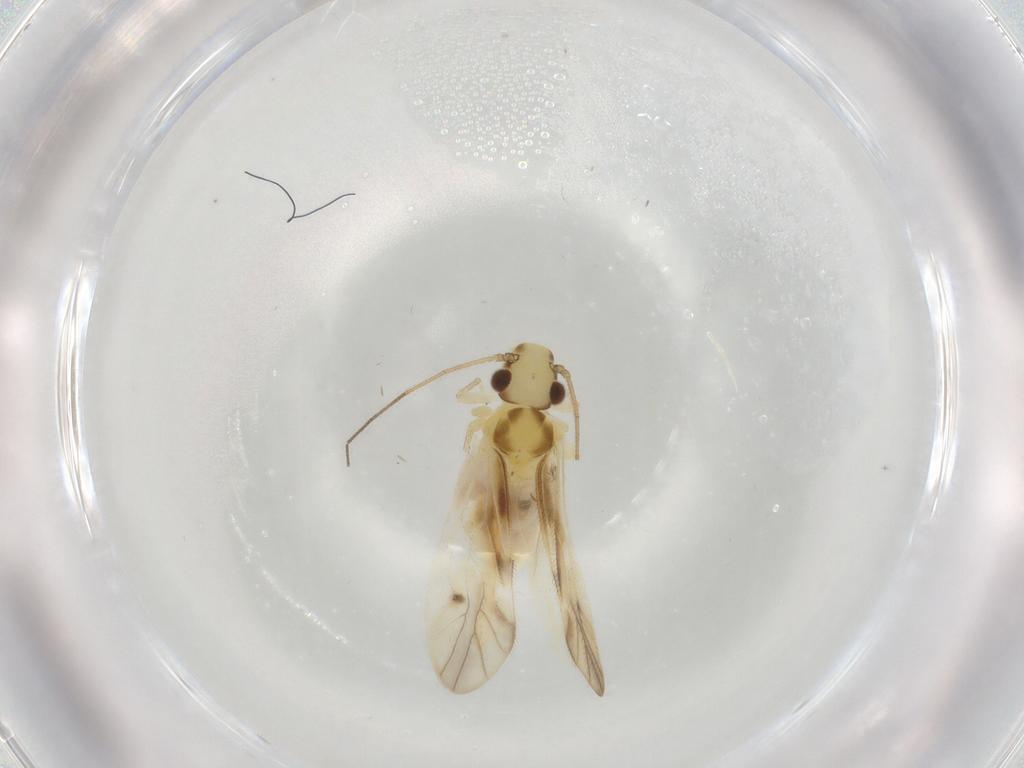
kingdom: Animalia
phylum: Arthropoda
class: Insecta
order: Psocodea
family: Caeciliusidae
